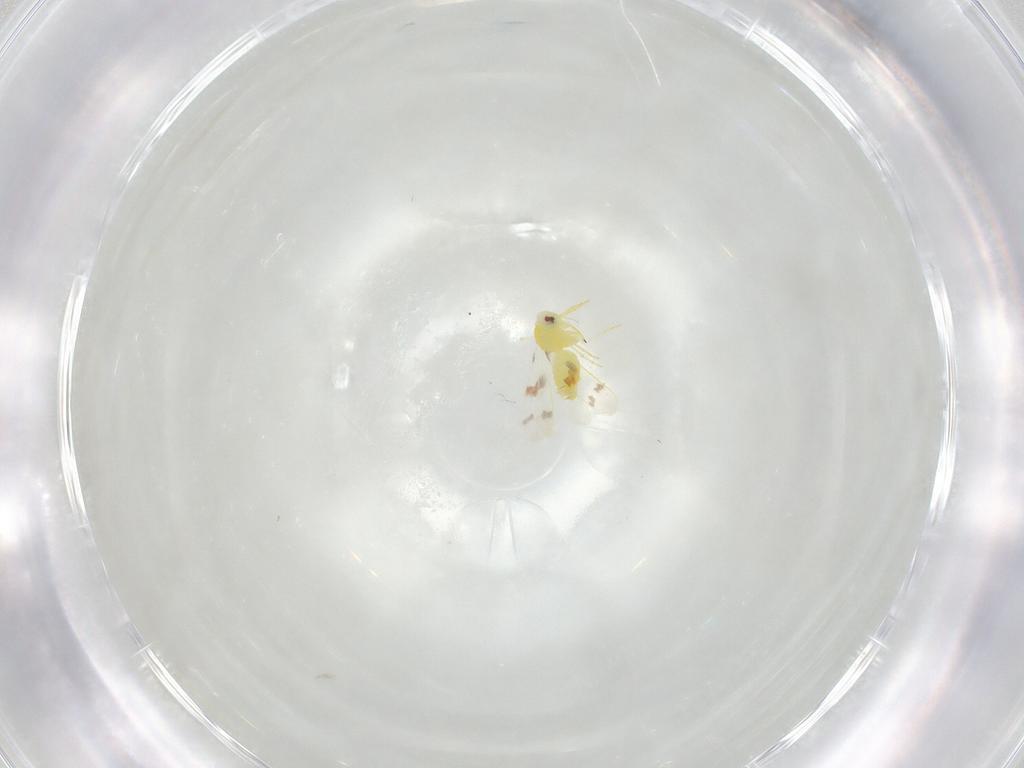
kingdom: Animalia
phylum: Arthropoda
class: Insecta
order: Hemiptera
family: Aleyrodidae
